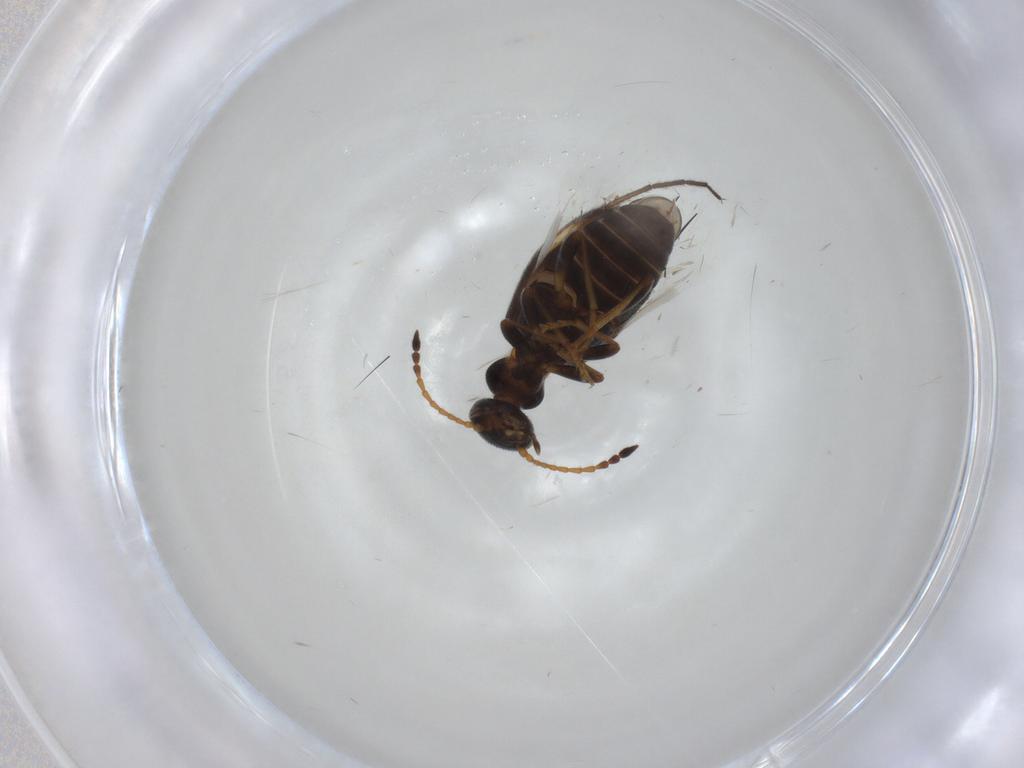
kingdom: Animalia
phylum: Arthropoda
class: Insecta
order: Coleoptera
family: Anthicidae
